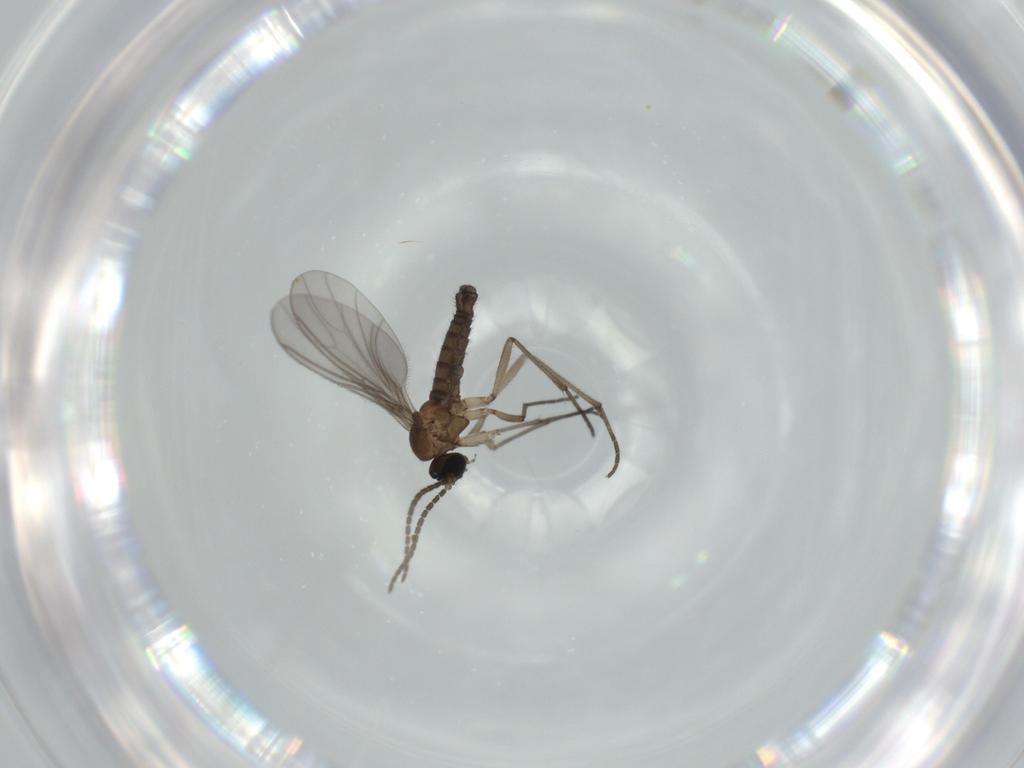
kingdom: Animalia
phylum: Arthropoda
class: Insecta
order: Diptera
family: Sciaridae
